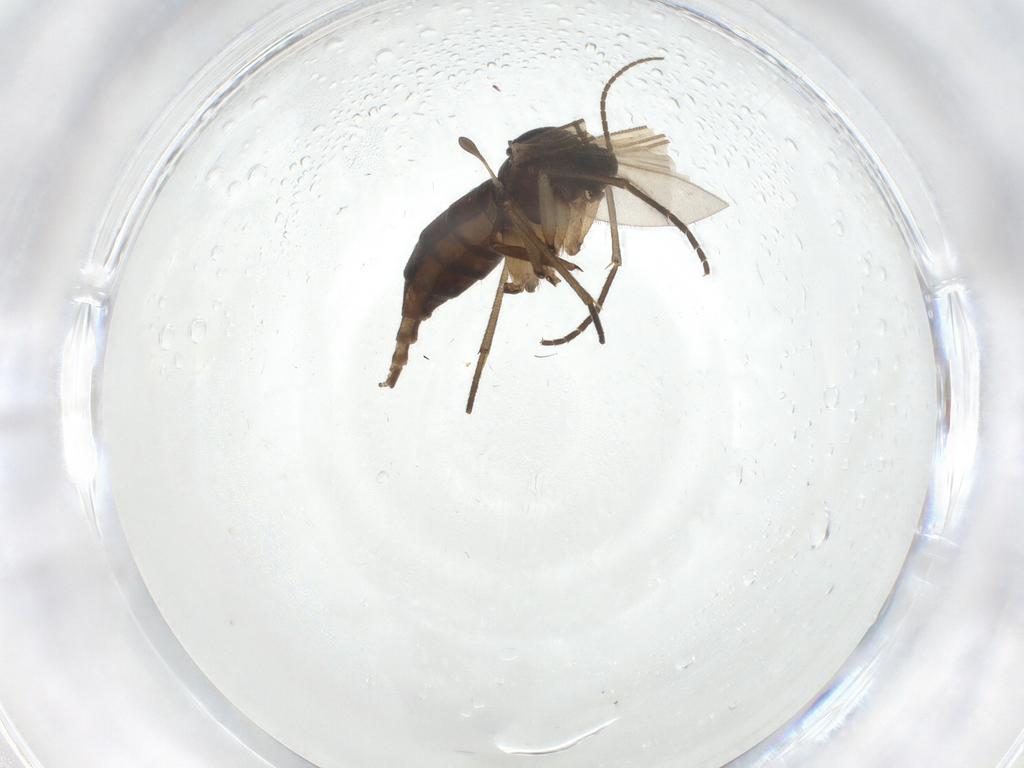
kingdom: Animalia
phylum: Arthropoda
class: Insecta
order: Diptera
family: Sciaridae
